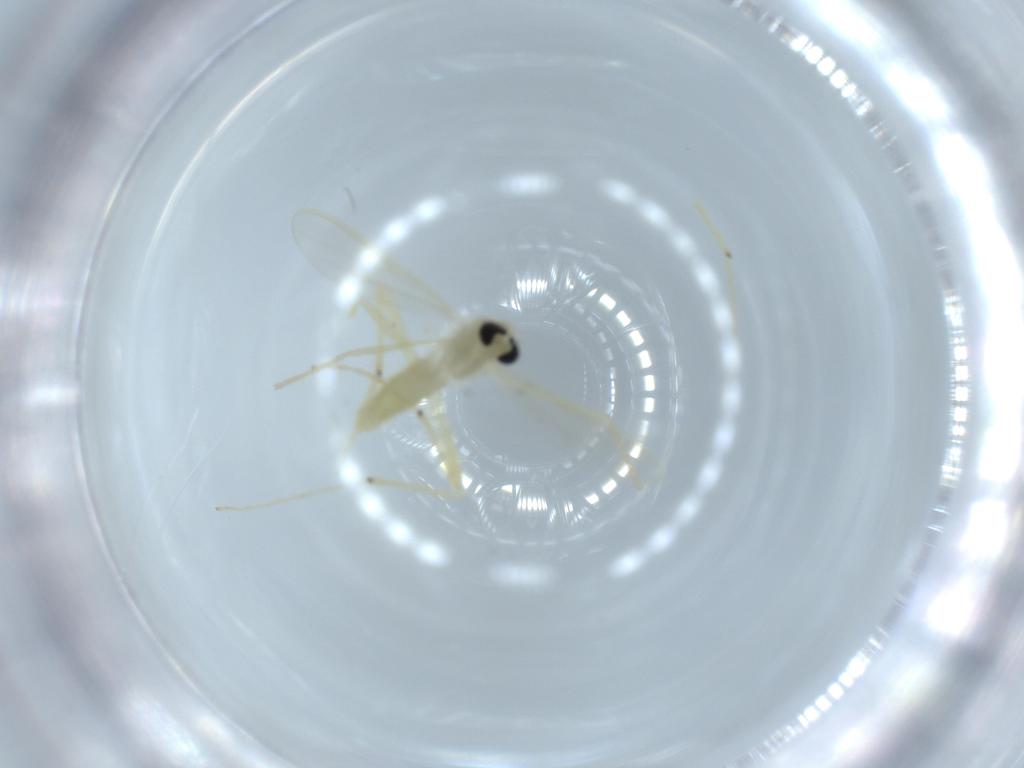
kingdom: Animalia
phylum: Arthropoda
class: Insecta
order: Diptera
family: Chironomidae
